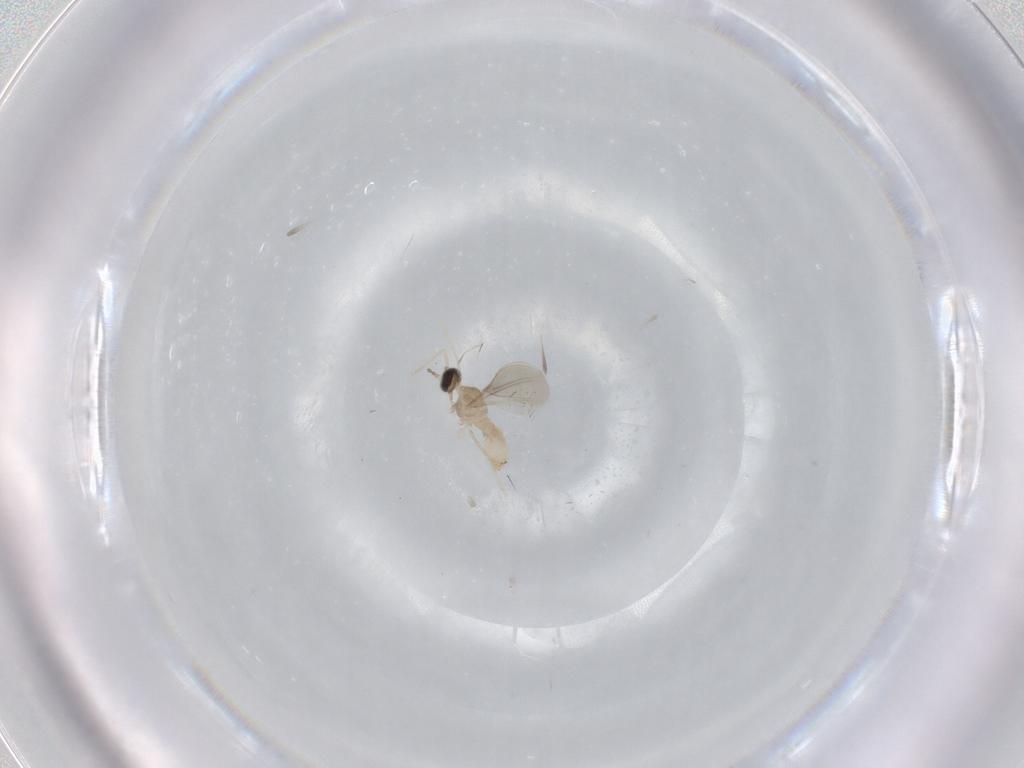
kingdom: Animalia
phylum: Arthropoda
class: Insecta
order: Diptera
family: Cecidomyiidae
